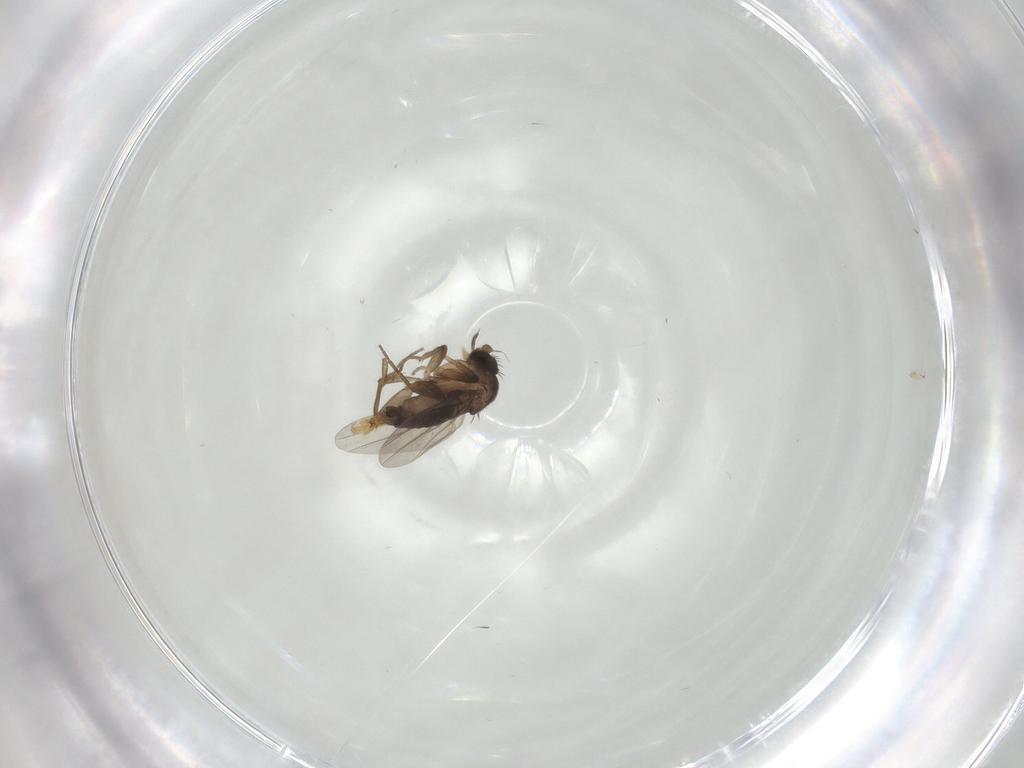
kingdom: Animalia
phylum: Arthropoda
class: Insecta
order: Diptera
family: Phoridae
